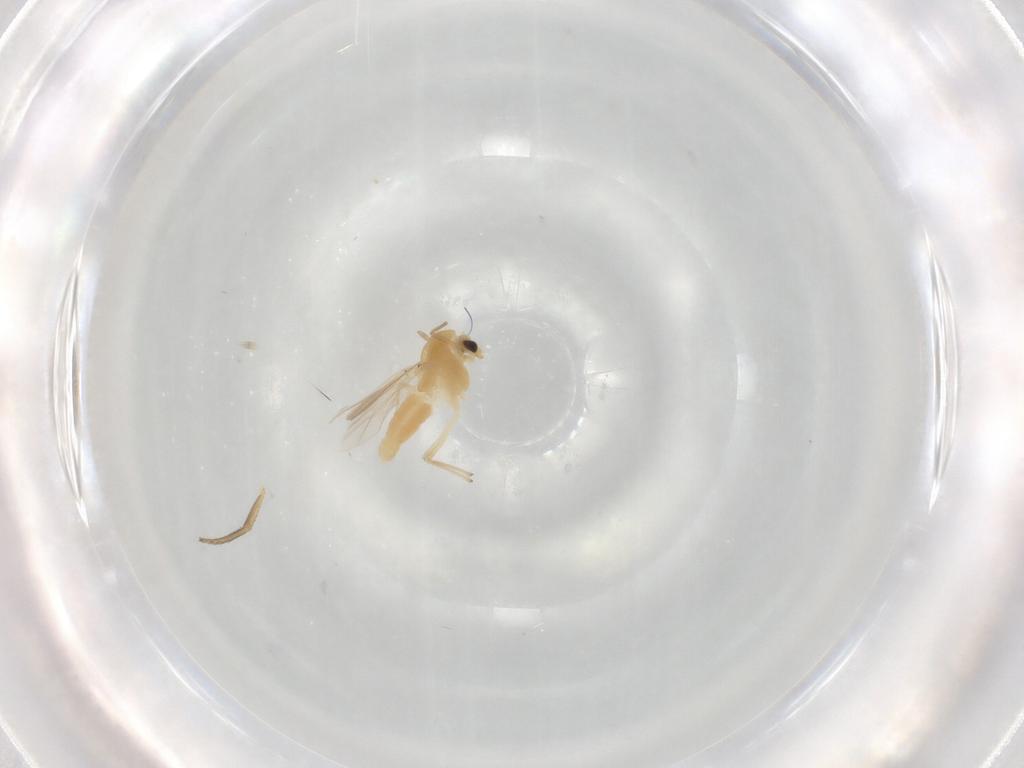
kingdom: Animalia
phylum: Arthropoda
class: Insecta
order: Diptera
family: Chironomidae
